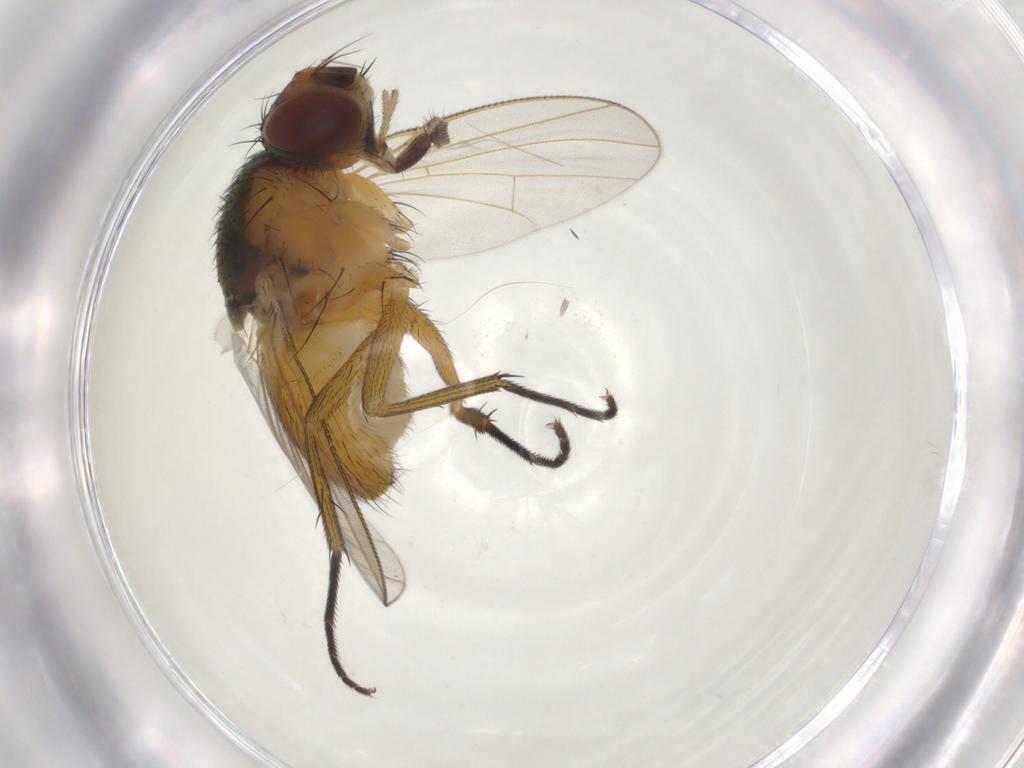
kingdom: Animalia
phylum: Arthropoda
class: Insecta
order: Diptera
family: Muscidae
